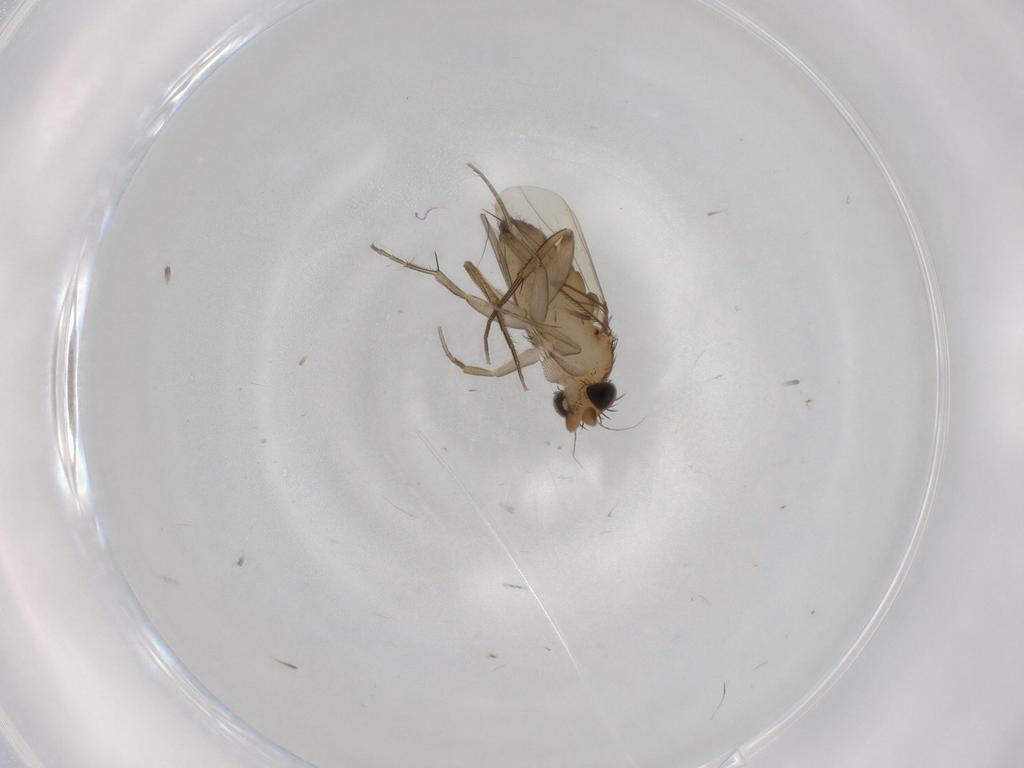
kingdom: Animalia
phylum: Arthropoda
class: Insecta
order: Diptera
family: Phoridae
